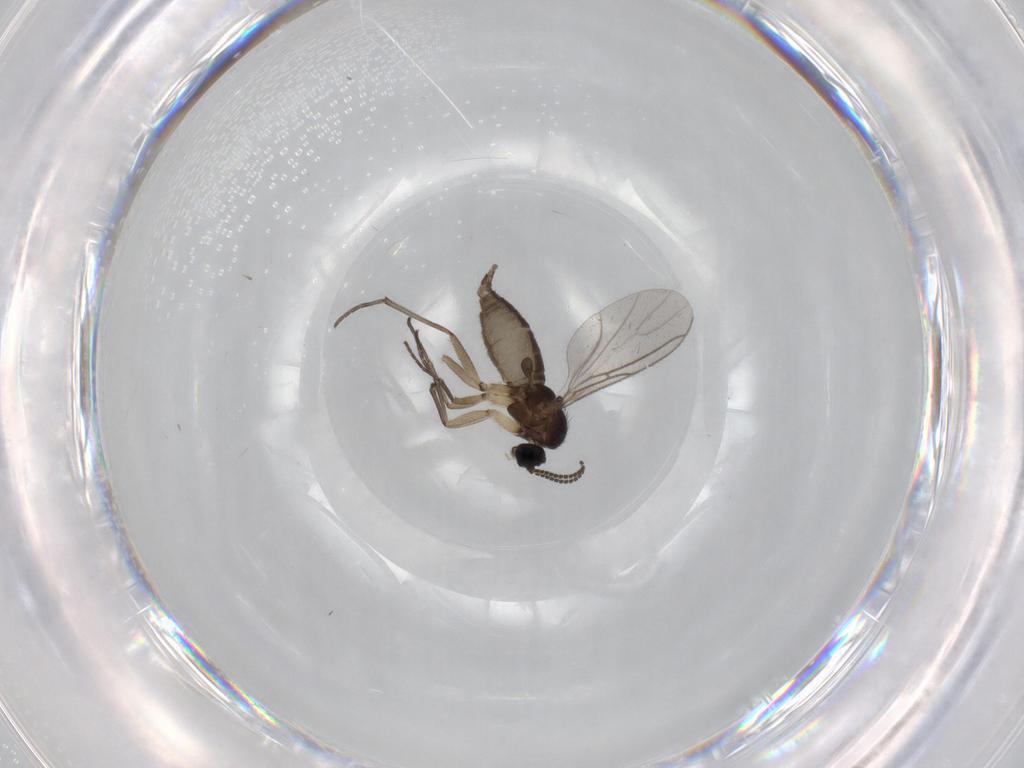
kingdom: Animalia
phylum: Arthropoda
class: Insecta
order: Diptera
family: Sciaridae
